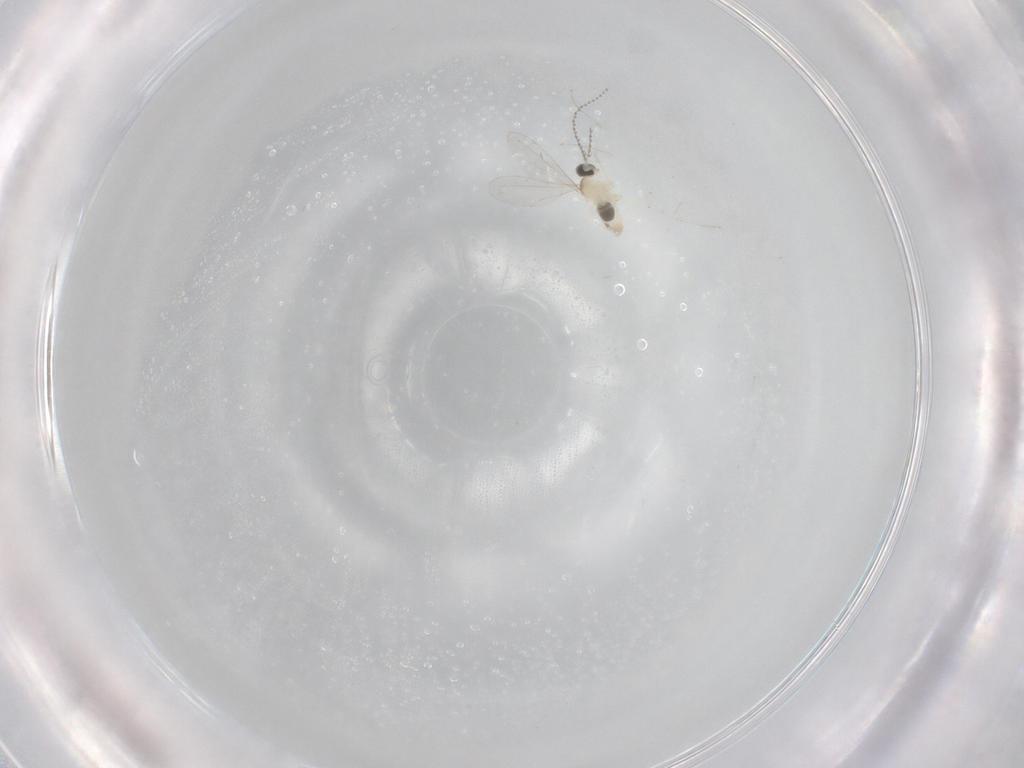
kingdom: Animalia
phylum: Arthropoda
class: Insecta
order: Diptera
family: Cecidomyiidae
